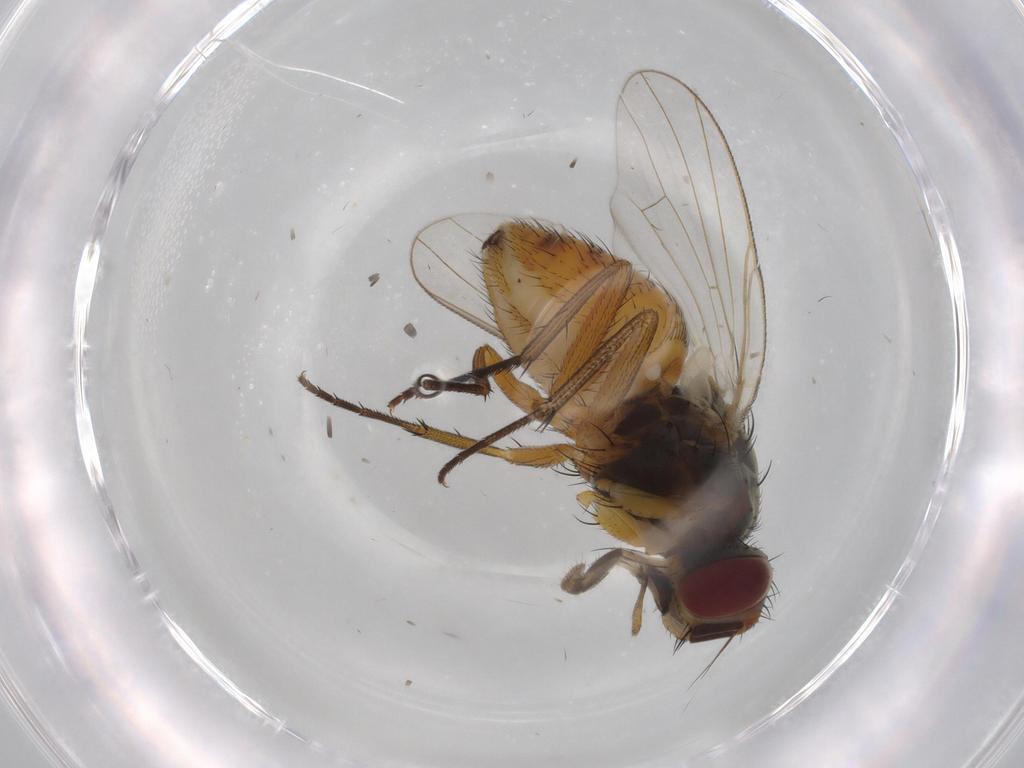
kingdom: Animalia
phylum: Arthropoda
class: Insecta
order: Diptera
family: Muscidae
